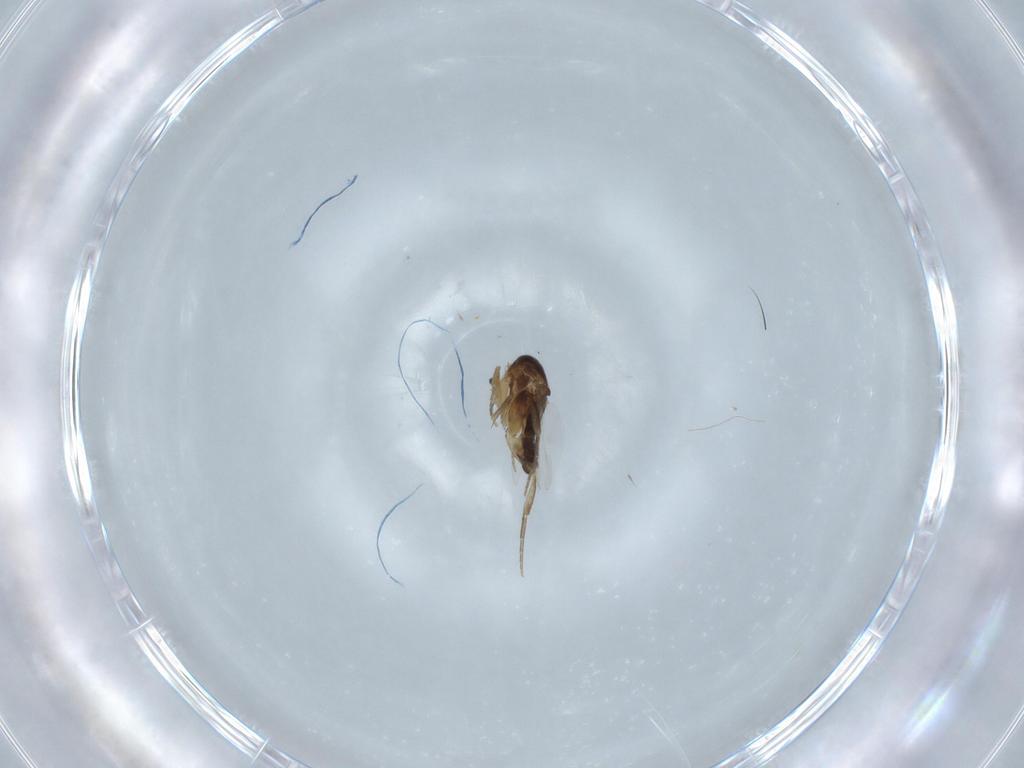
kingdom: Animalia
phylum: Arthropoda
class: Insecta
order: Diptera
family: Phoridae
